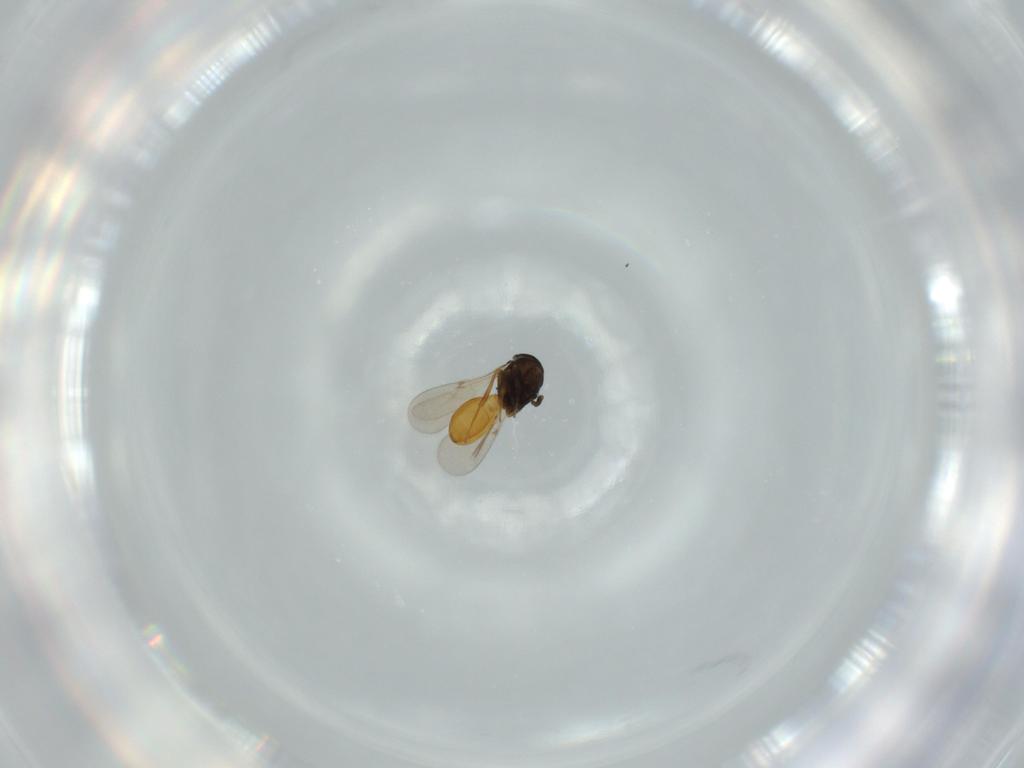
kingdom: Animalia
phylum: Arthropoda
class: Insecta
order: Hymenoptera
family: Scelionidae
